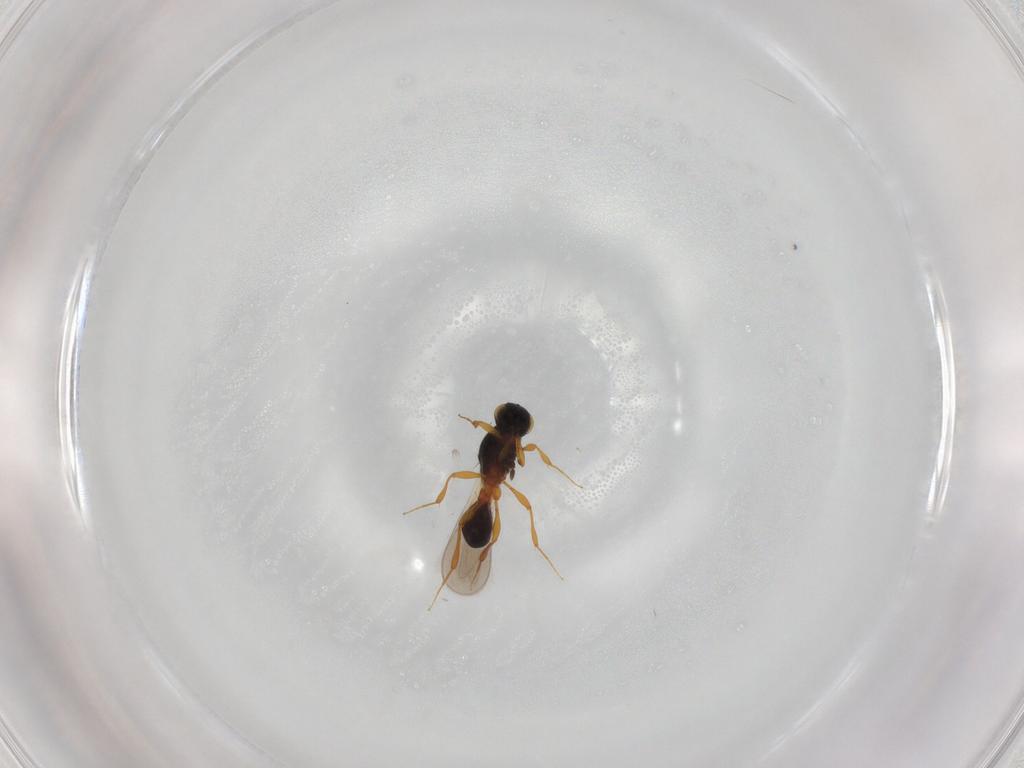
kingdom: Animalia
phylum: Arthropoda
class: Insecta
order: Hymenoptera
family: Platygastridae
